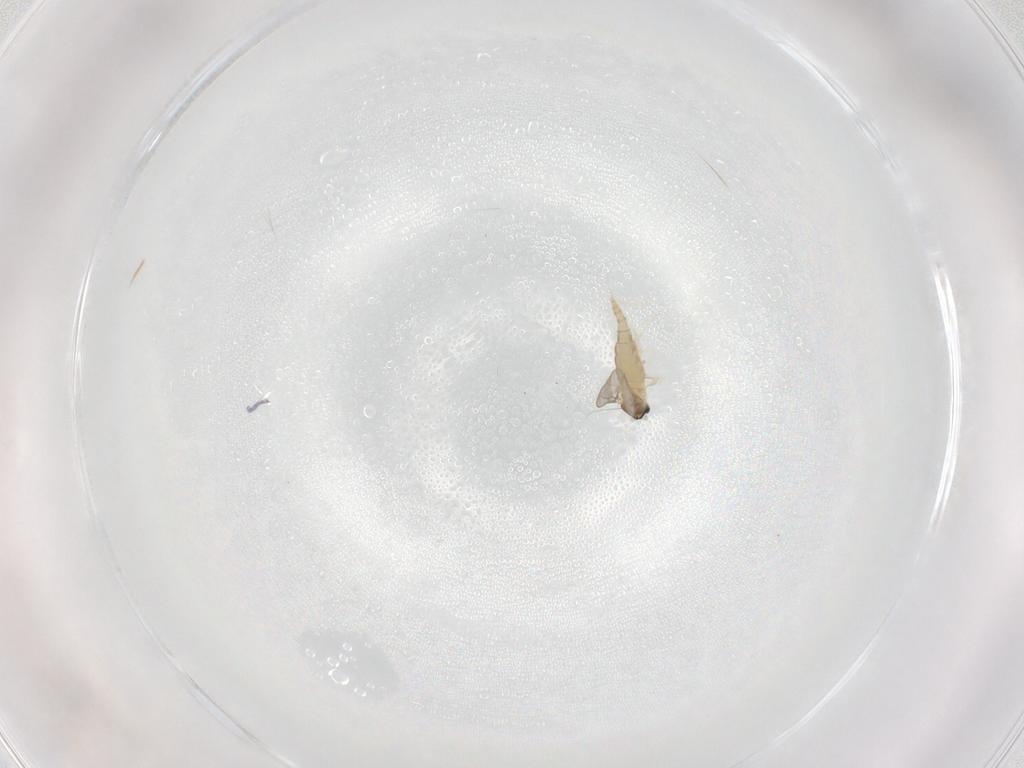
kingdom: Animalia
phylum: Arthropoda
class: Insecta
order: Diptera
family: Cecidomyiidae
